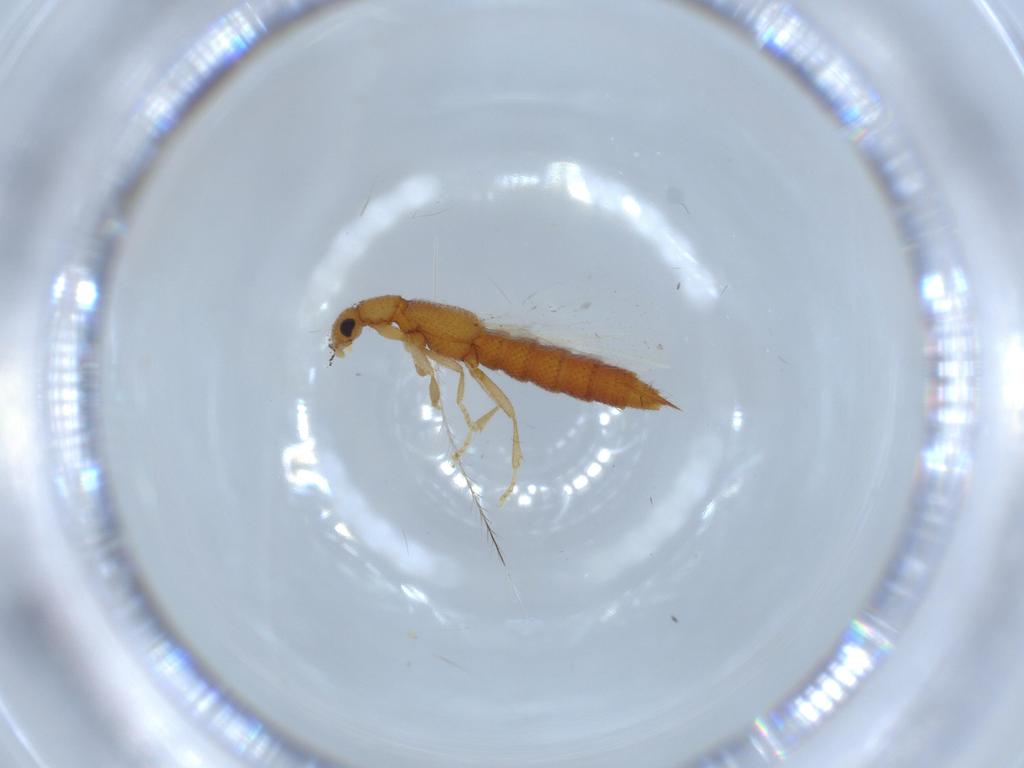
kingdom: Animalia
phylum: Arthropoda
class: Insecta
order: Coleoptera
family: Staphylinidae
